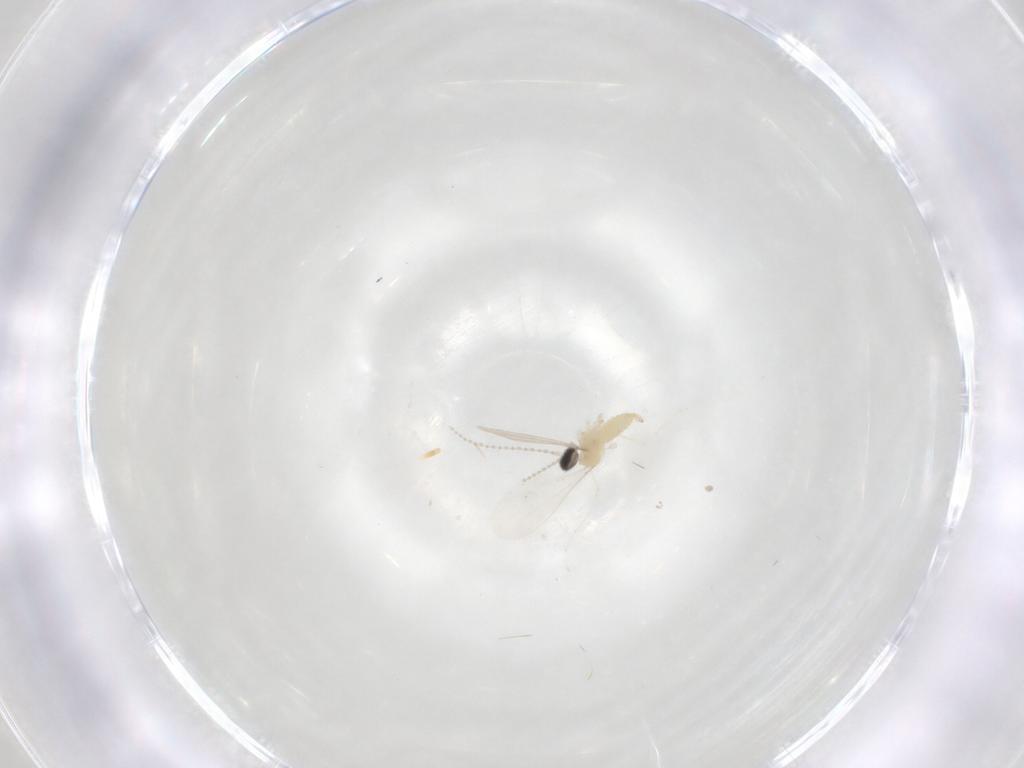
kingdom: Animalia
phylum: Arthropoda
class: Insecta
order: Diptera
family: Cecidomyiidae
